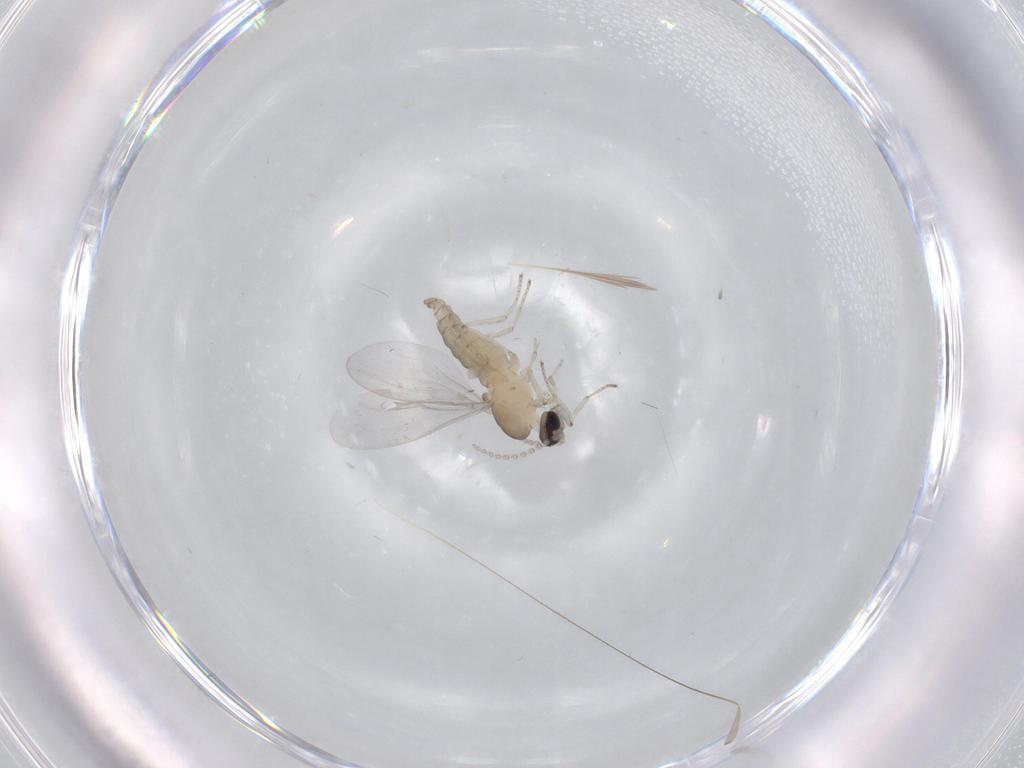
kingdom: Animalia
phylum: Arthropoda
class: Insecta
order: Diptera
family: Cecidomyiidae
